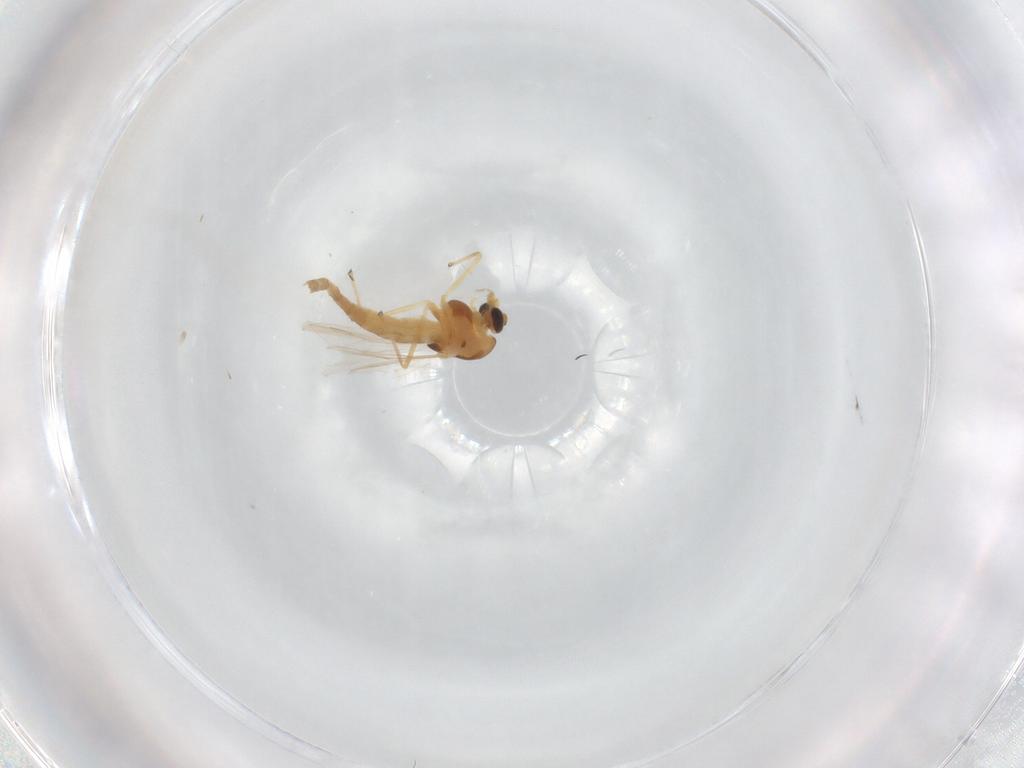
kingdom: Animalia
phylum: Arthropoda
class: Insecta
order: Diptera
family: Chironomidae
